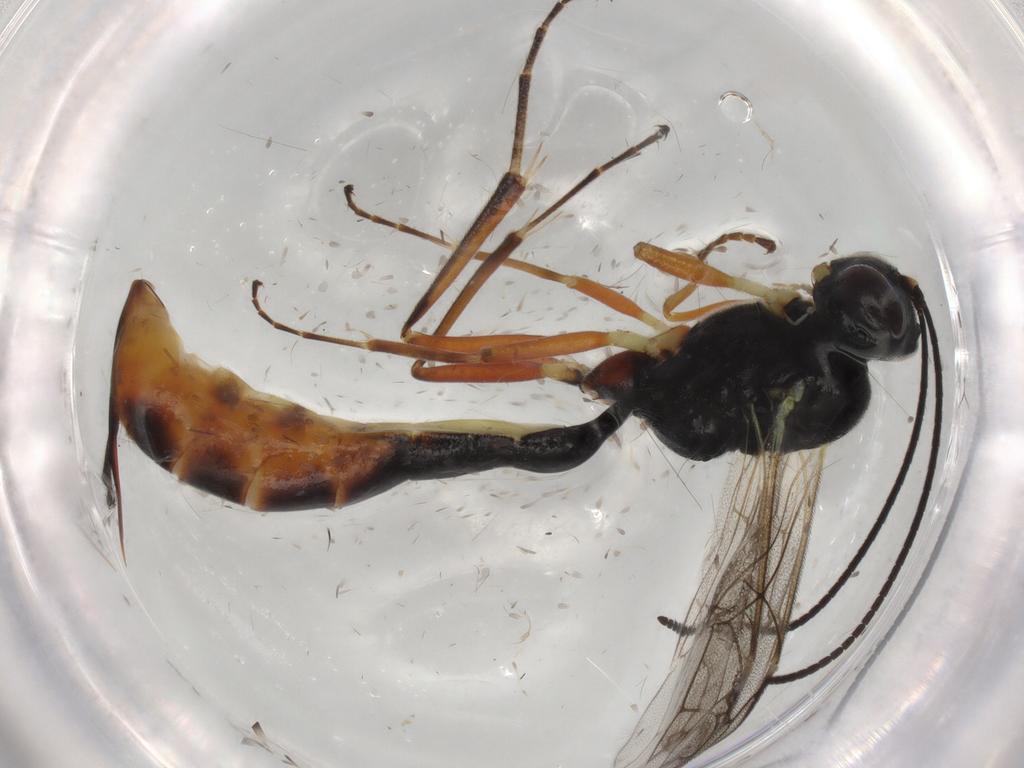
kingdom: Animalia
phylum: Arthropoda
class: Insecta
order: Hymenoptera
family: Ichneumonidae
